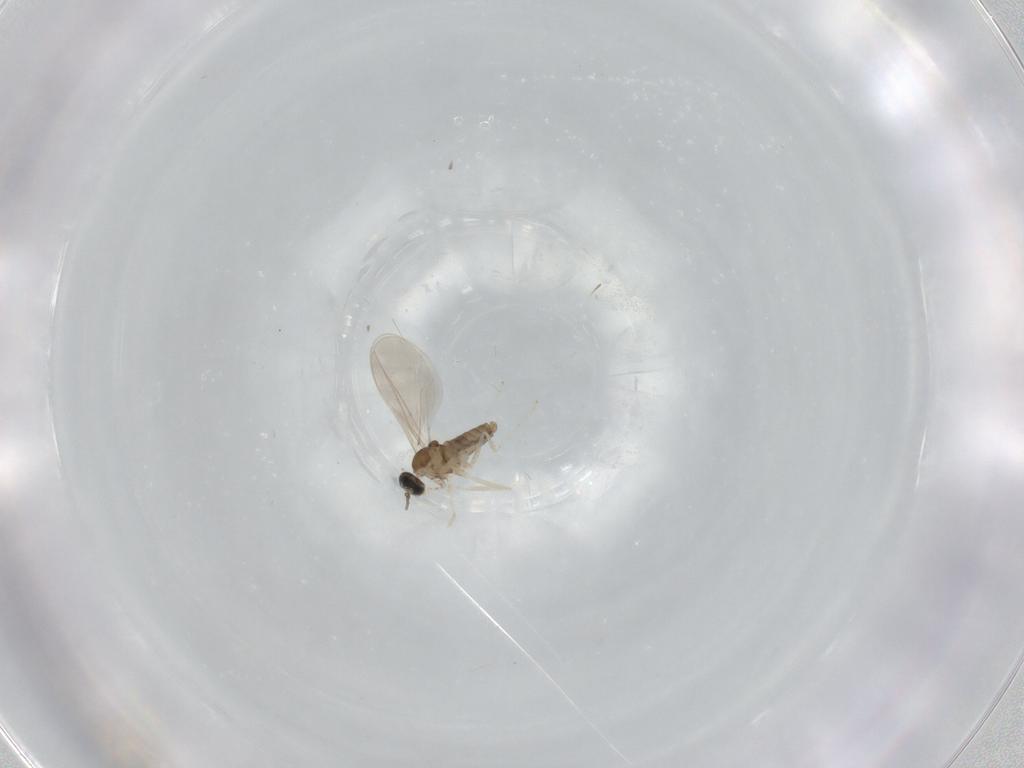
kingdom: Animalia
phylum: Arthropoda
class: Insecta
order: Diptera
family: Cecidomyiidae
